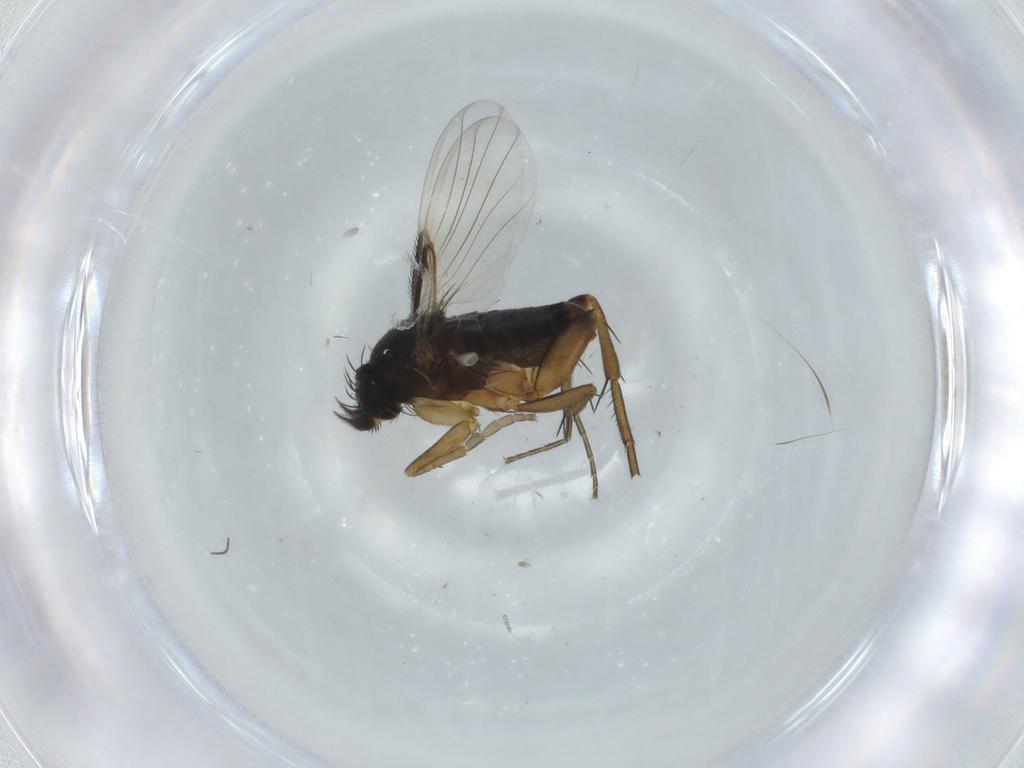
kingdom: Animalia
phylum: Arthropoda
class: Insecta
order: Diptera
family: Phoridae
